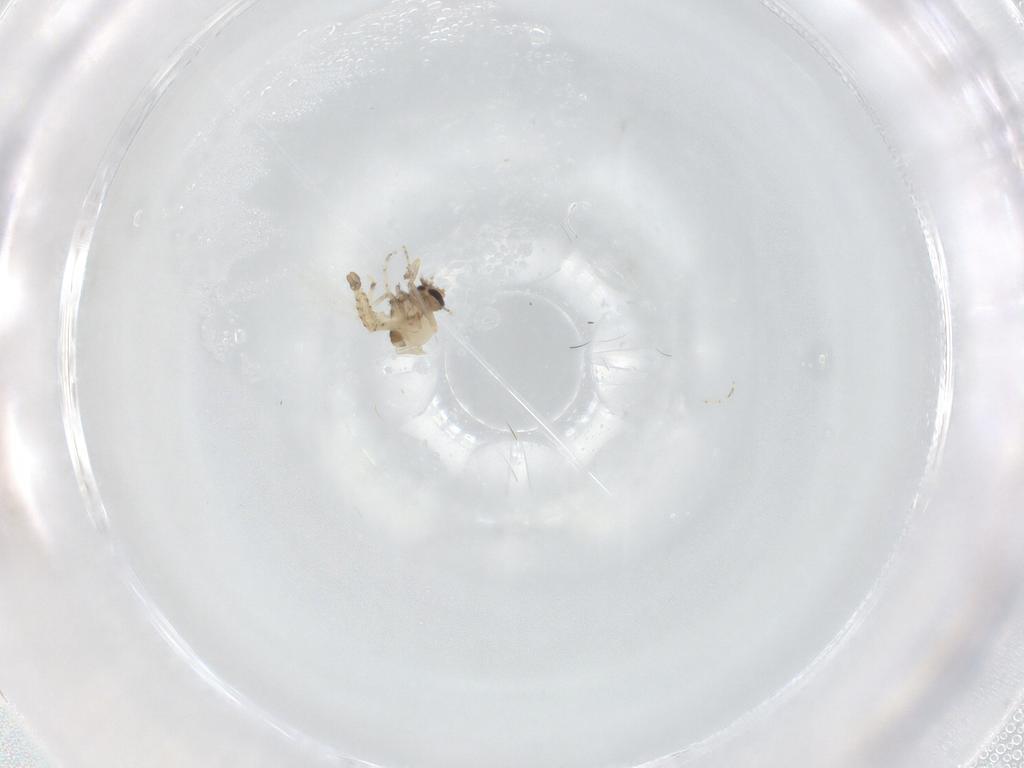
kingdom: Animalia
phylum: Arthropoda
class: Insecta
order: Diptera
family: Ceratopogonidae
